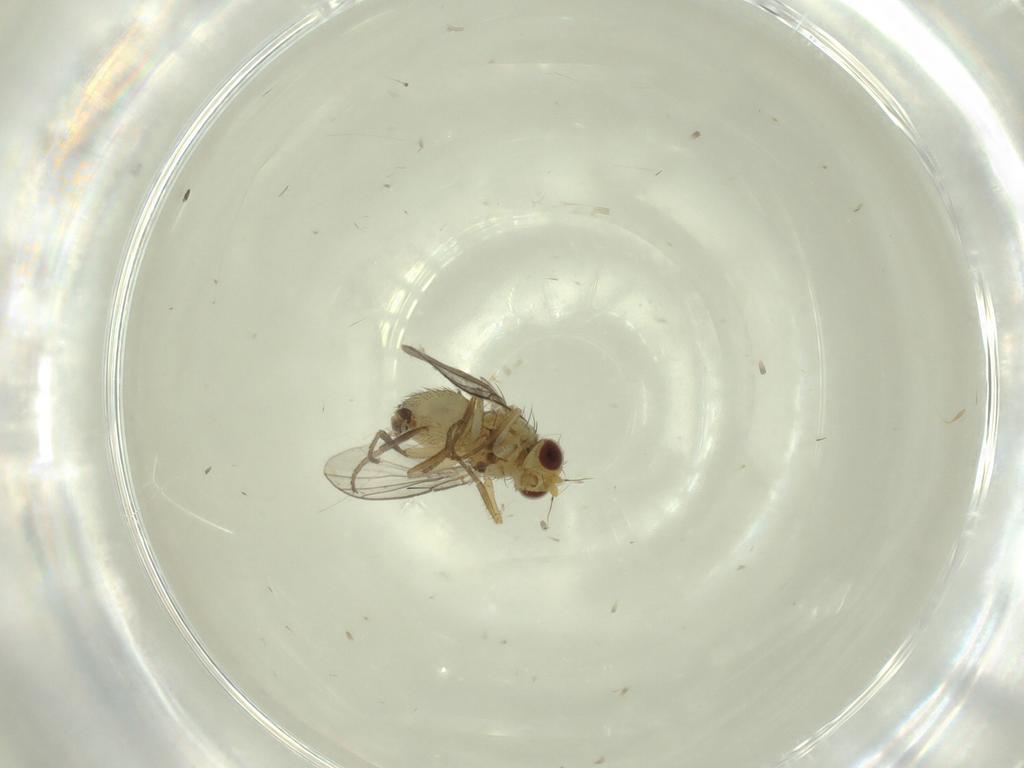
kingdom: Animalia
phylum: Arthropoda
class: Insecta
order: Diptera
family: Agromyzidae
